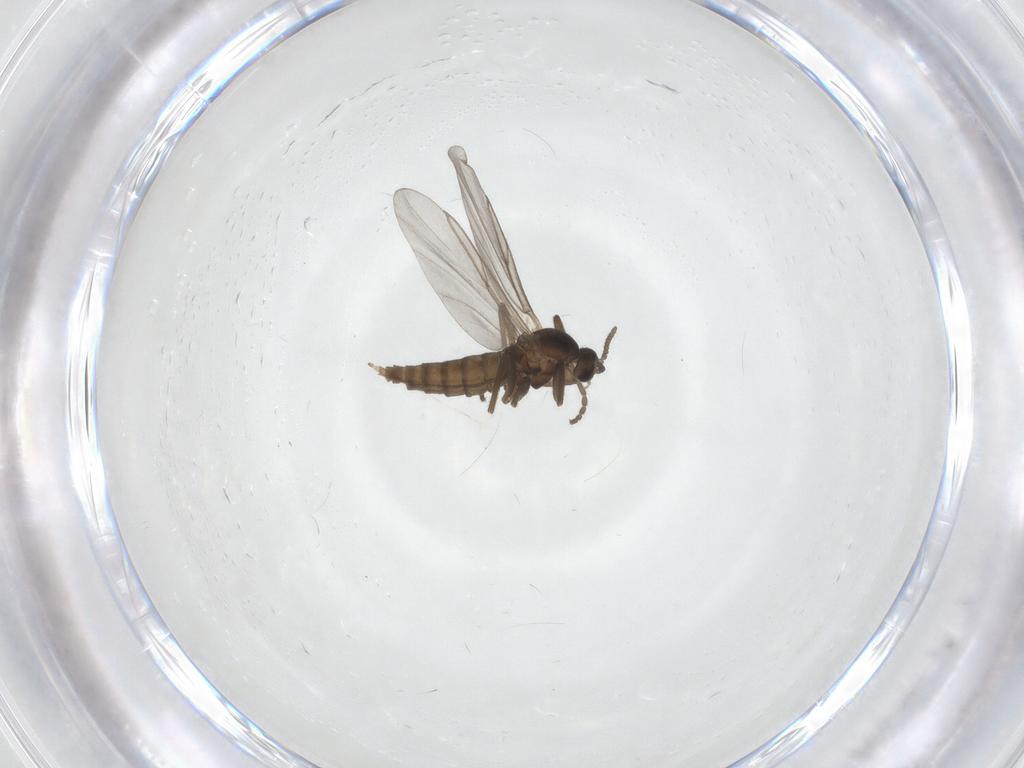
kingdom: Animalia
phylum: Arthropoda
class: Insecta
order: Diptera
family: Cecidomyiidae
